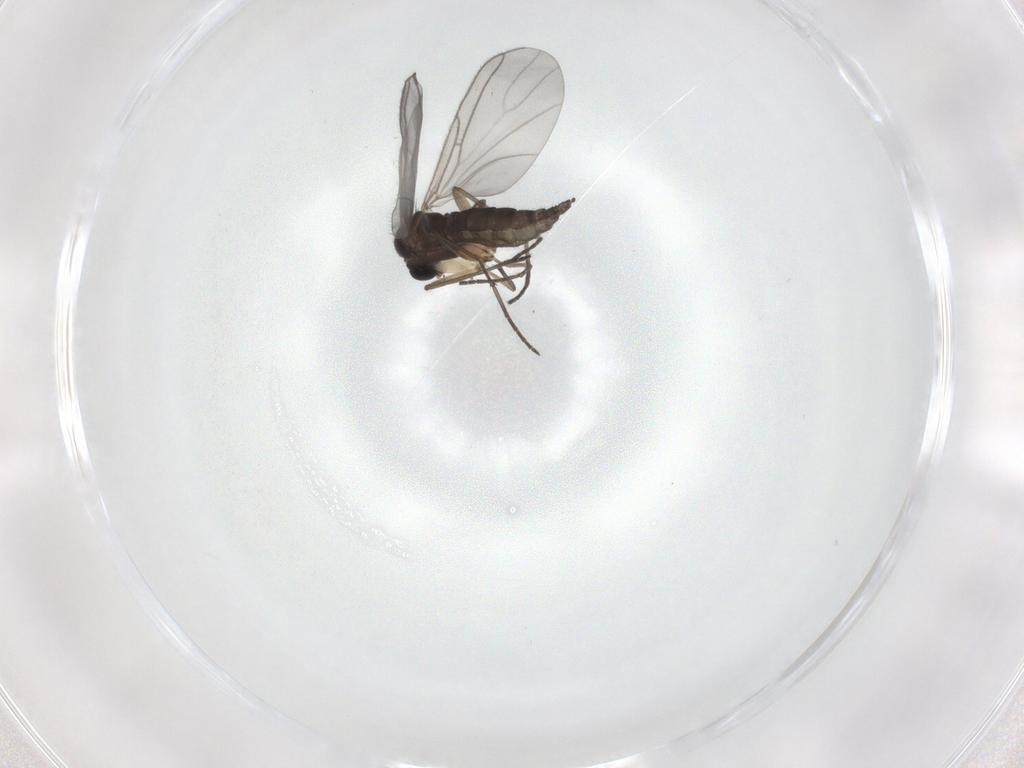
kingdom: Animalia
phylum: Arthropoda
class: Insecta
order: Diptera
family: Sciaridae
